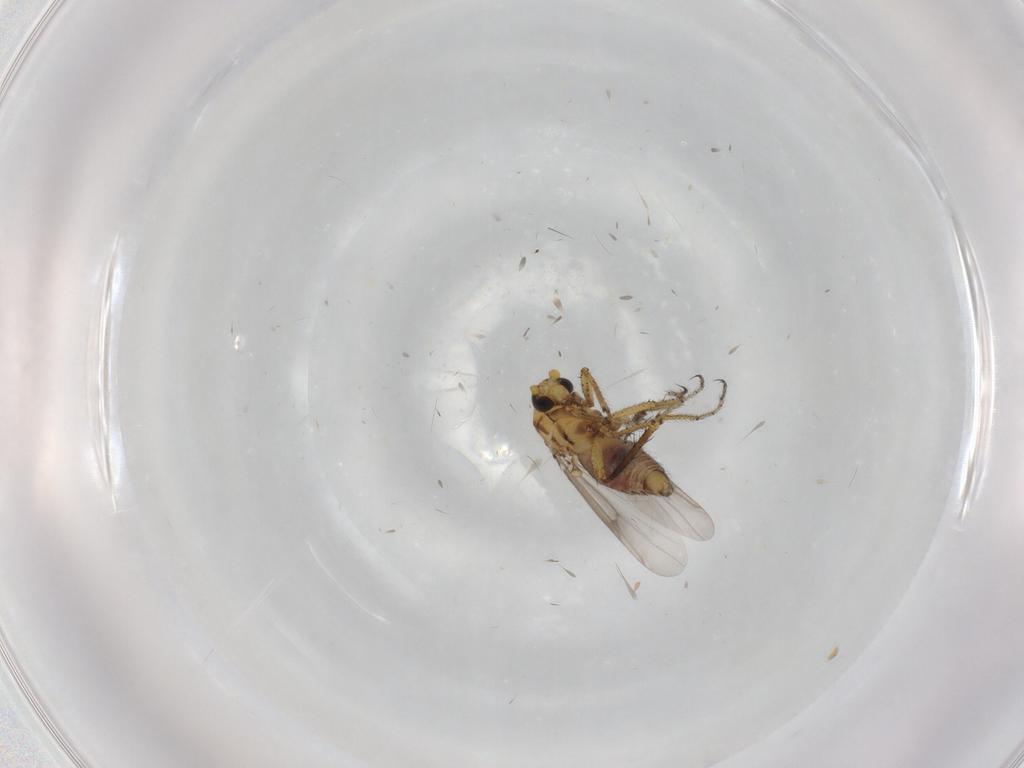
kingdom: Animalia
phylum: Arthropoda
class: Insecta
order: Diptera
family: Ceratopogonidae
